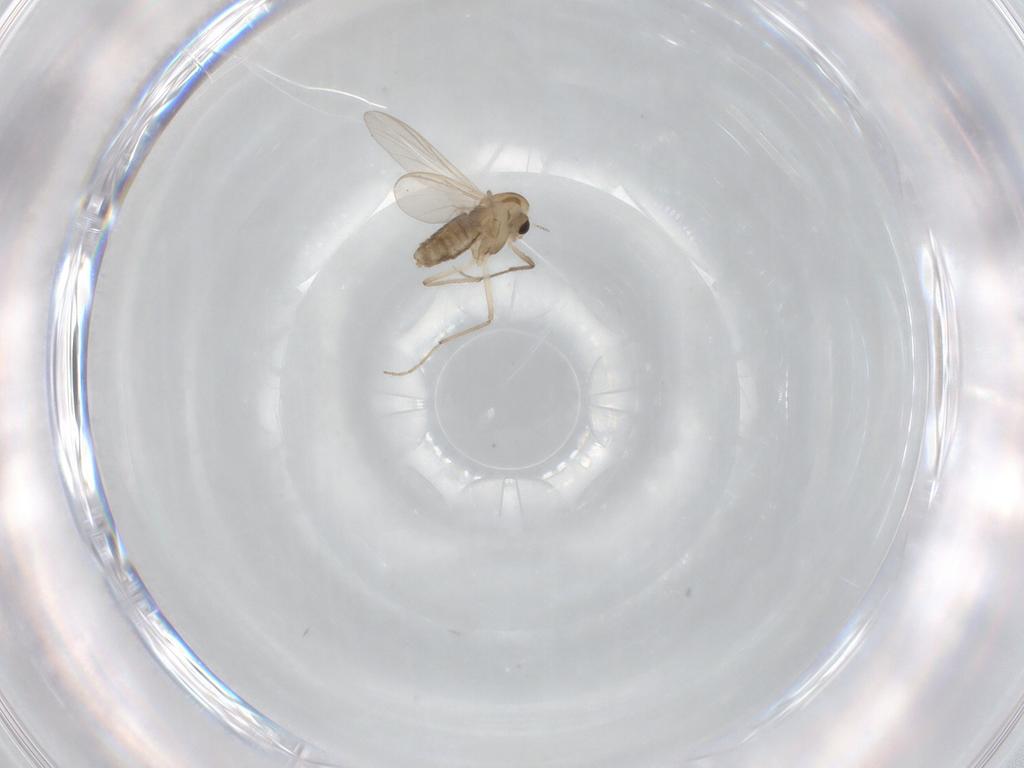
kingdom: Animalia
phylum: Arthropoda
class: Insecta
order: Diptera
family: Chironomidae
